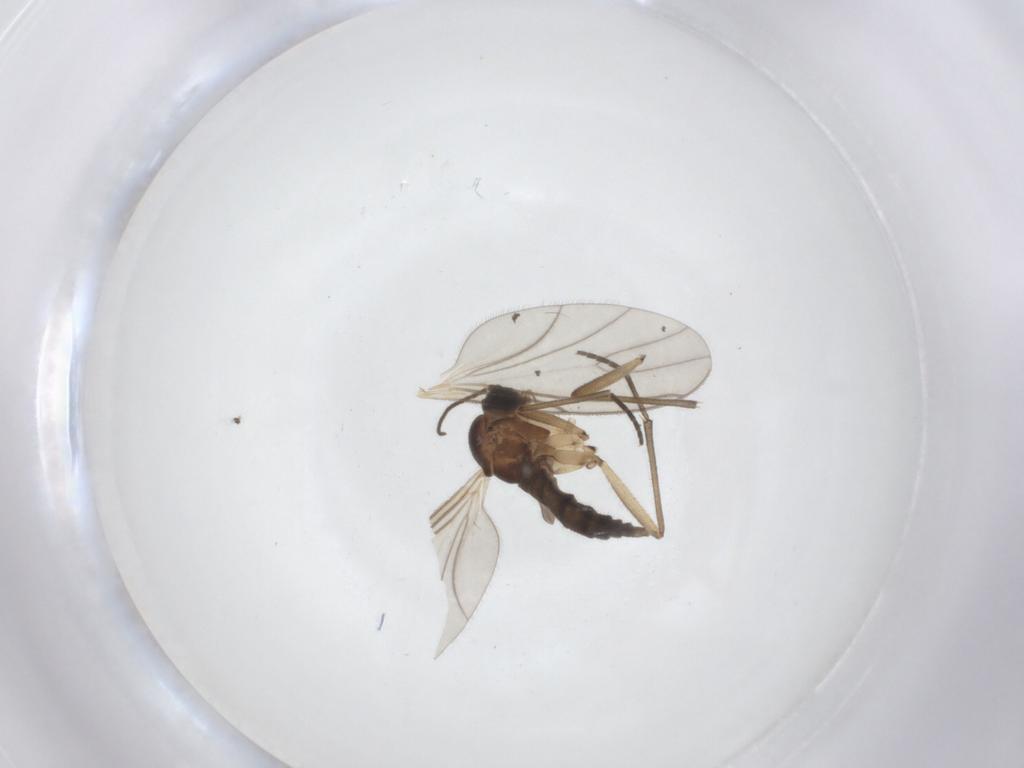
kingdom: Animalia
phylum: Arthropoda
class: Insecta
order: Diptera
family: Sciaridae
